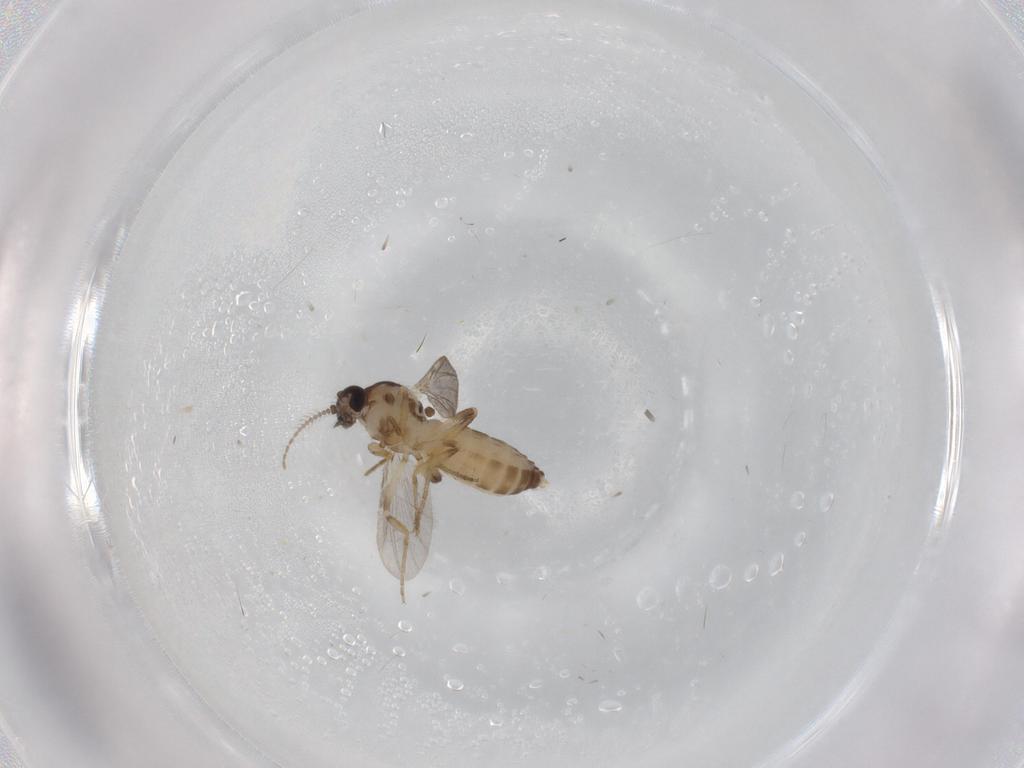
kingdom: Animalia
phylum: Arthropoda
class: Insecta
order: Diptera
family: Ceratopogonidae
